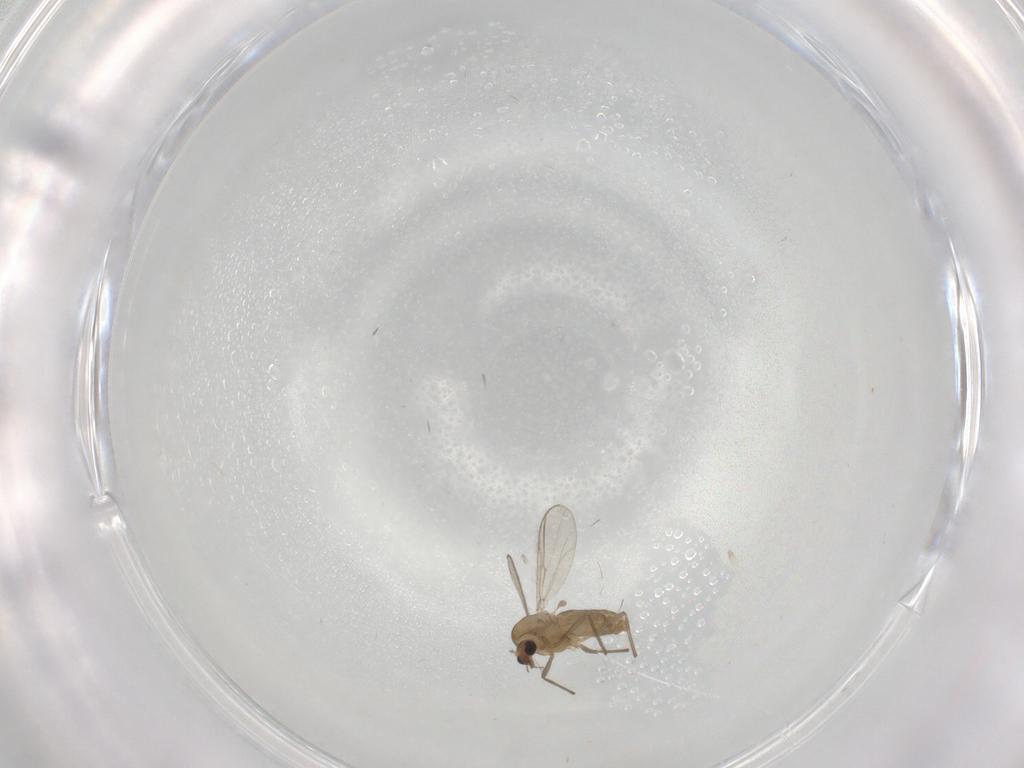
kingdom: Animalia
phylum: Arthropoda
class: Insecta
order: Diptera
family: Chironomidae
